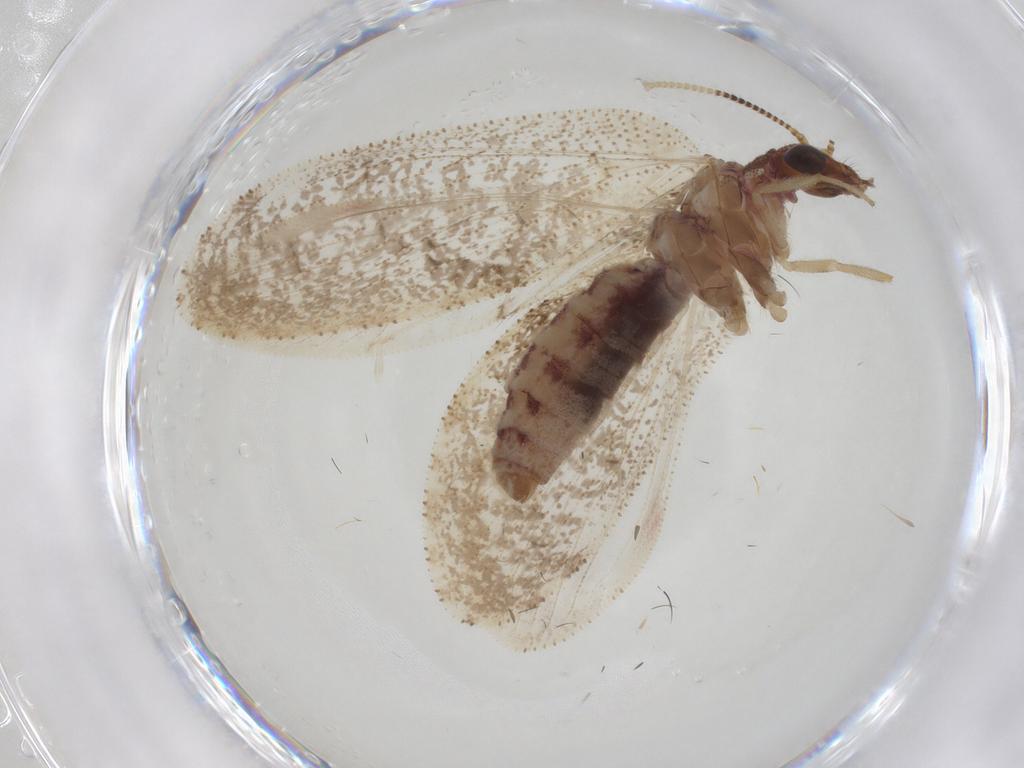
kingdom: Animalia
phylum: Arthropoda
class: Insecta
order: Neuroptera
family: Hemerobiidae
